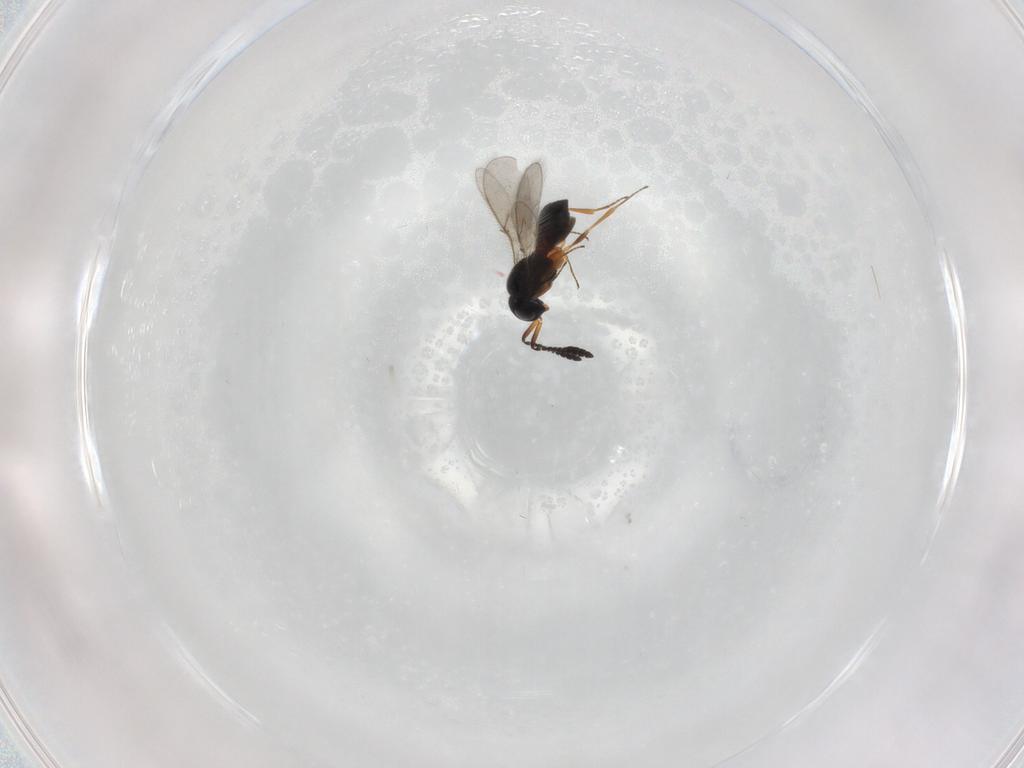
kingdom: Animalia
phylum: Arthropoda
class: Insecta
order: Hymenoptera
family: Scelionidae
